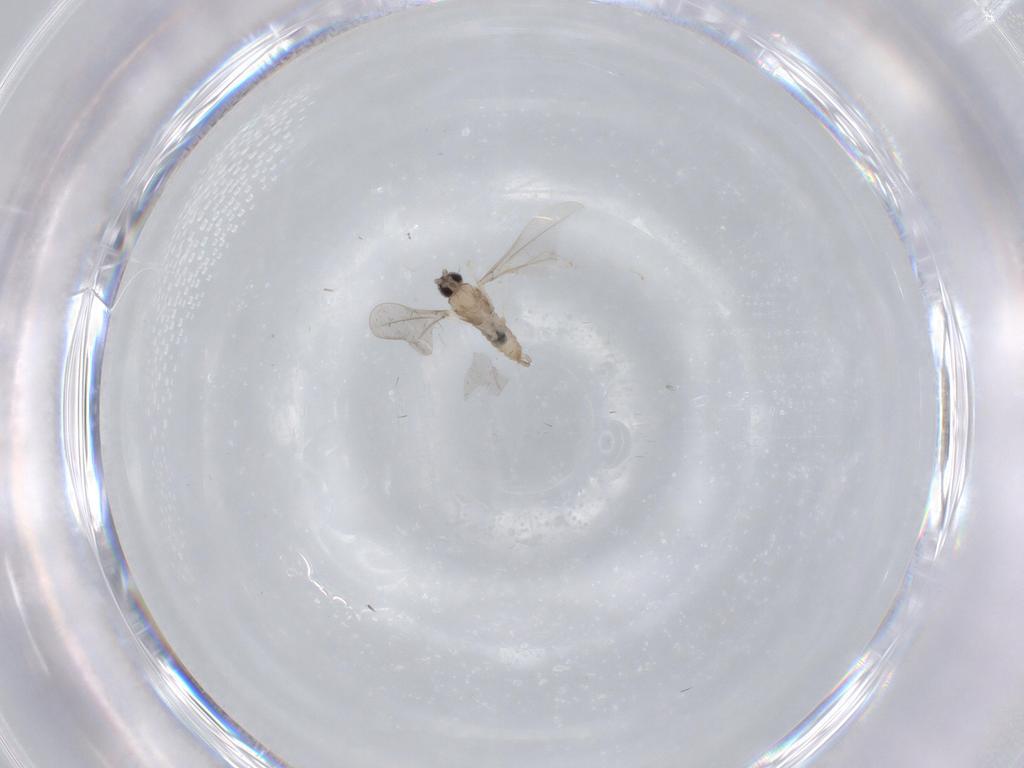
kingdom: Animalia
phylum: Arthropoda
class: Insecta
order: Diptera
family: Cecidomyiidae
